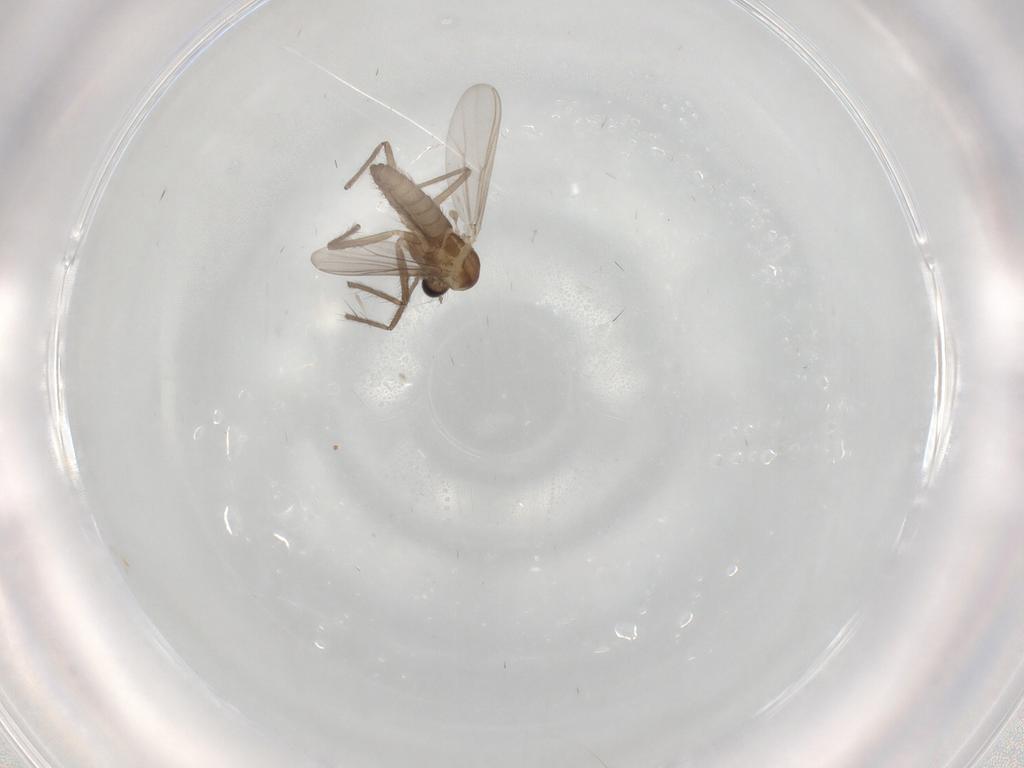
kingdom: Animalia
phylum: Arthropoda
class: Insecta
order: Diptera
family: Chironomidae
